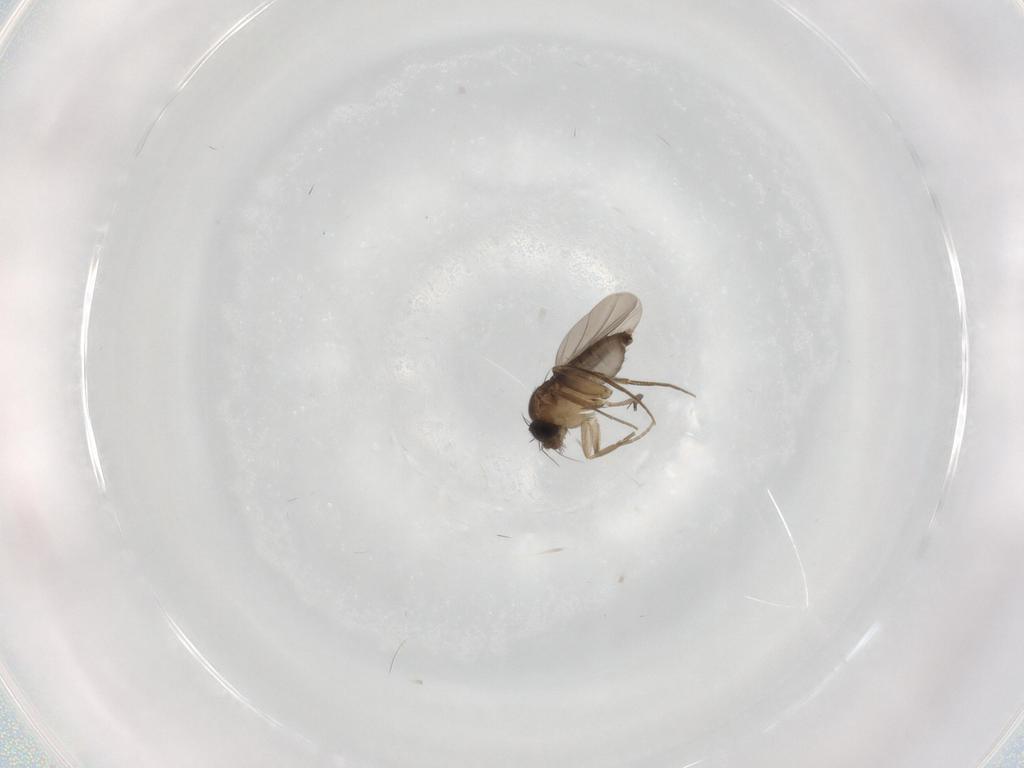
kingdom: Animalia
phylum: Arthropoda
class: Insecta
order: Diptera
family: Phoridae
